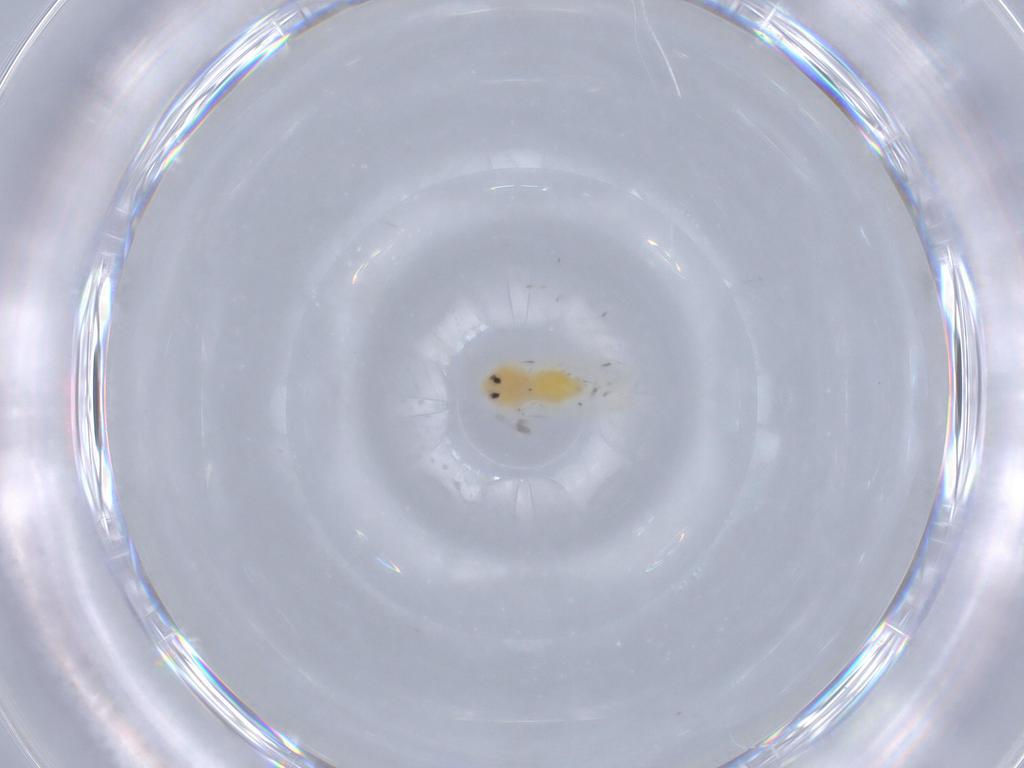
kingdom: Animalia
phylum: Arthropoda
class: Insecta
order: Hemiptera
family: Aleyrodidae
